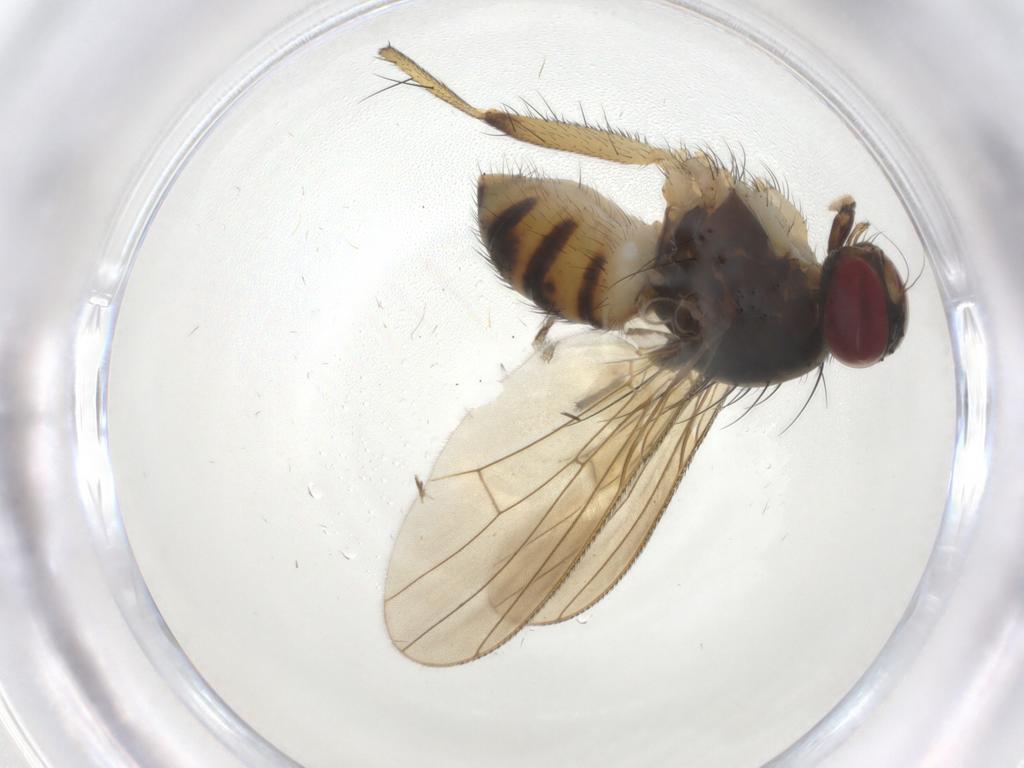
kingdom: Animalia
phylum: Arthropoda
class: Insecta
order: Diptera
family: Muscidae
